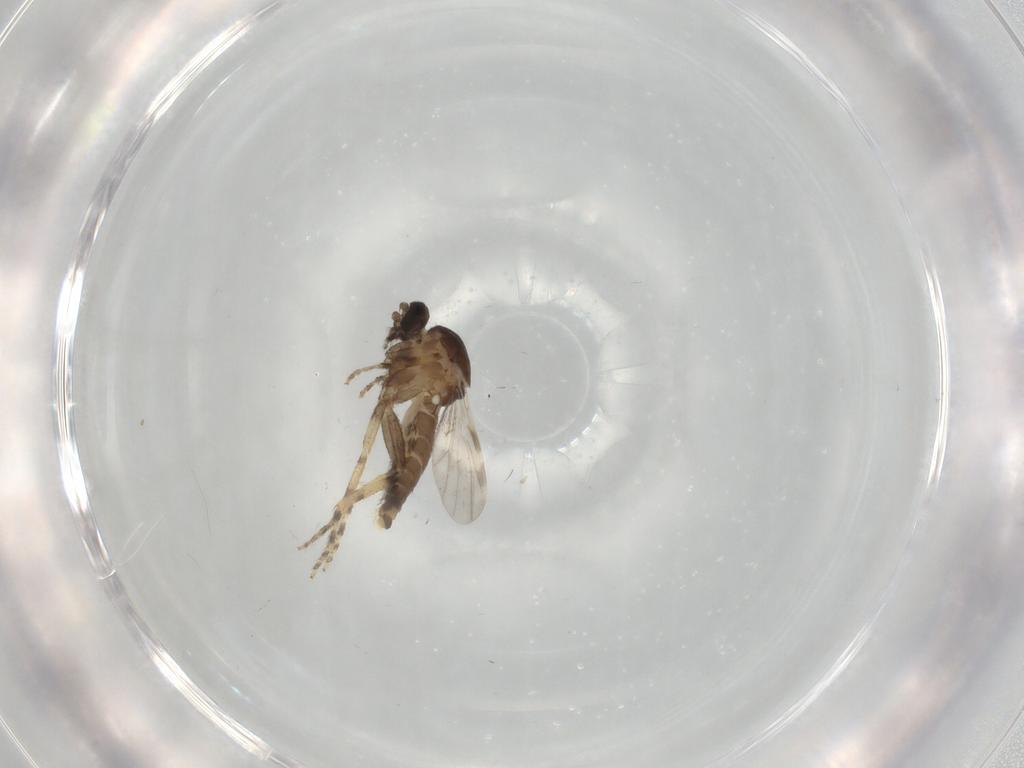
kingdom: Animalia
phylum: Arthropoda
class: Insecta
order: Diptera
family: Ceratopogonidae
